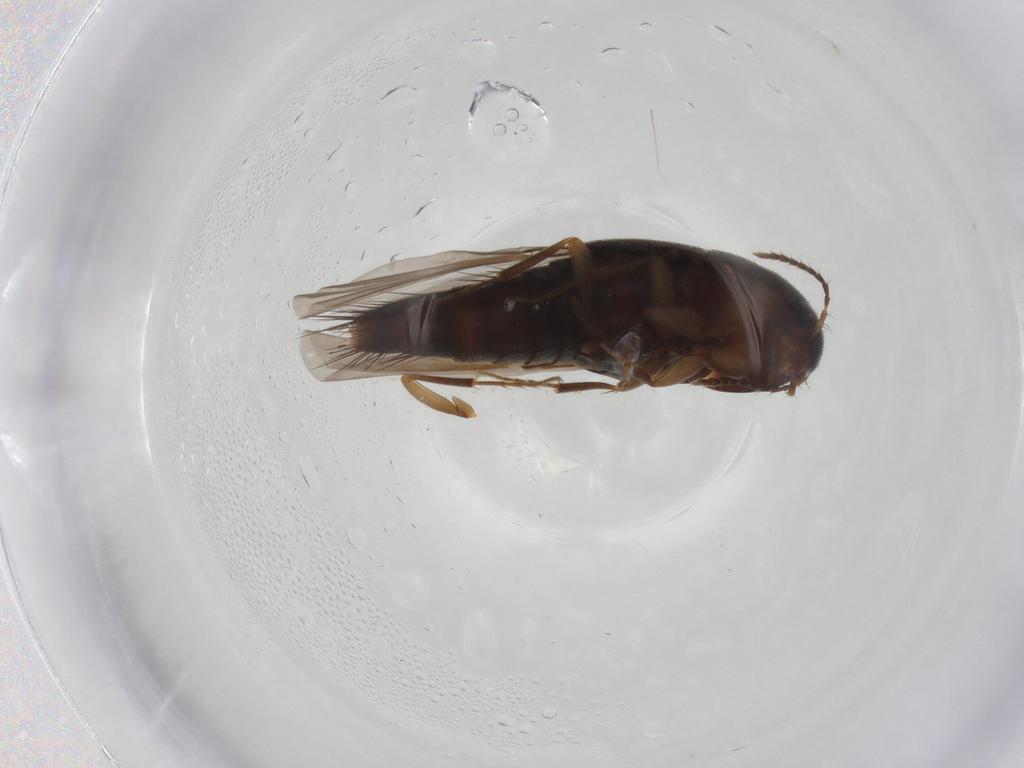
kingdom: Animalia
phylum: Arthropoda
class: Insecta
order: Coleoptera
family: Staphylinidae
